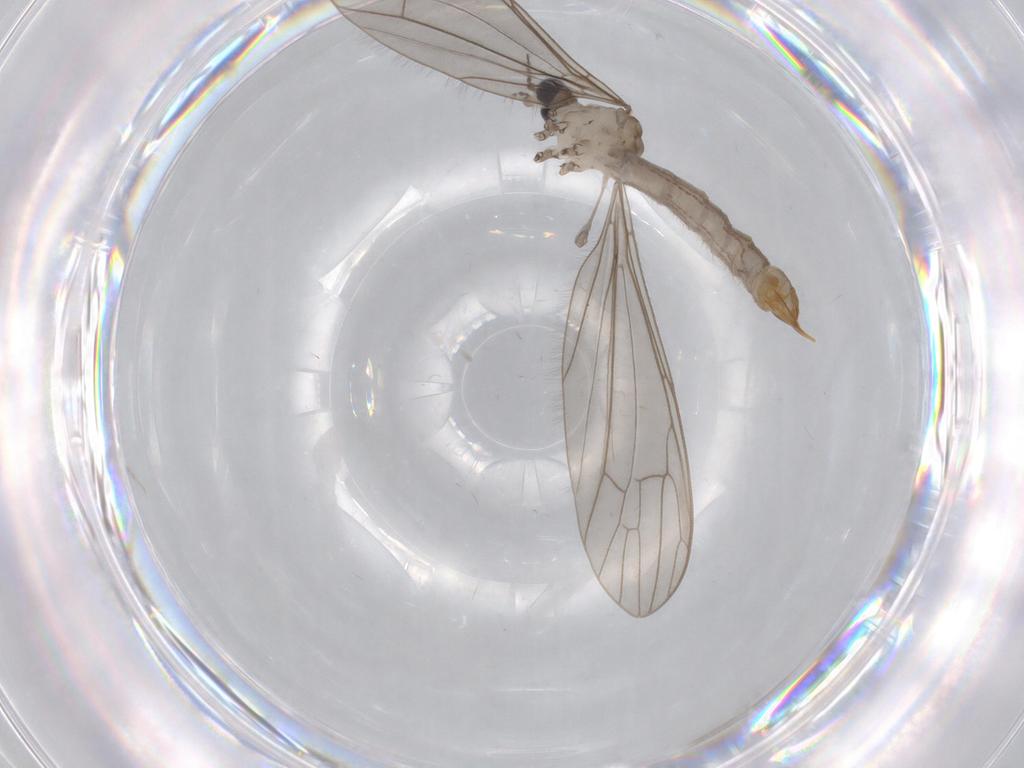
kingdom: Animalia
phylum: Arthropoda
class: Insecta
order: Diptera
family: Limoniidae
